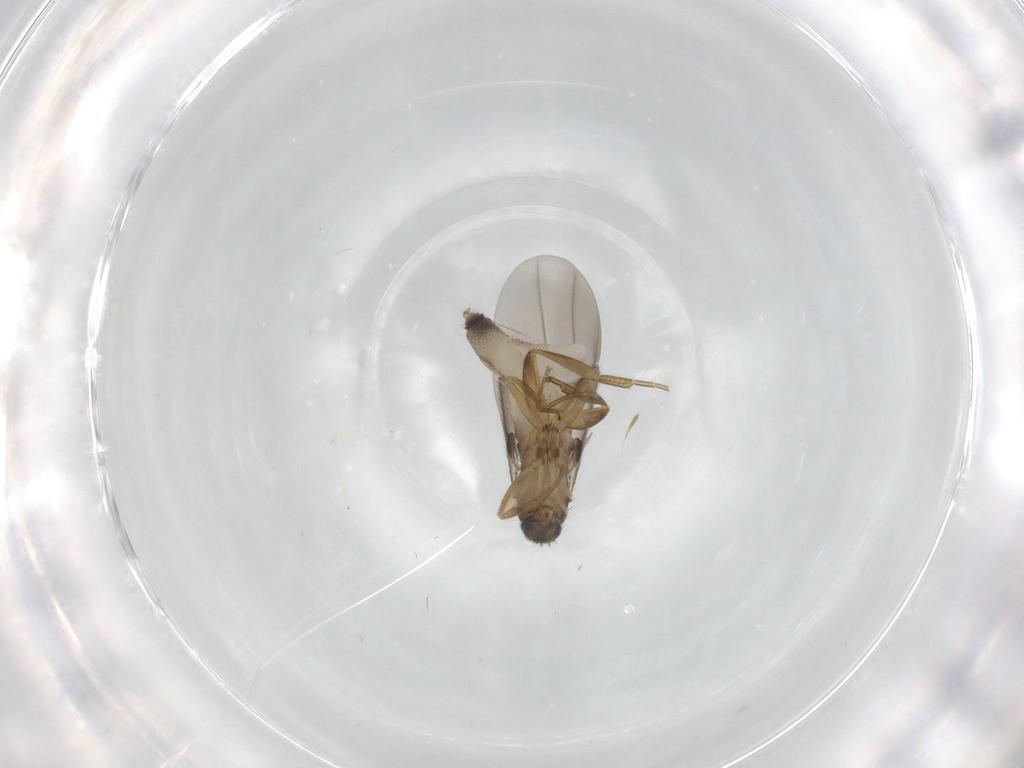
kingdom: Animalia
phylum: Arthropoda
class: Insecta
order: Diptera
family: Phoridae
